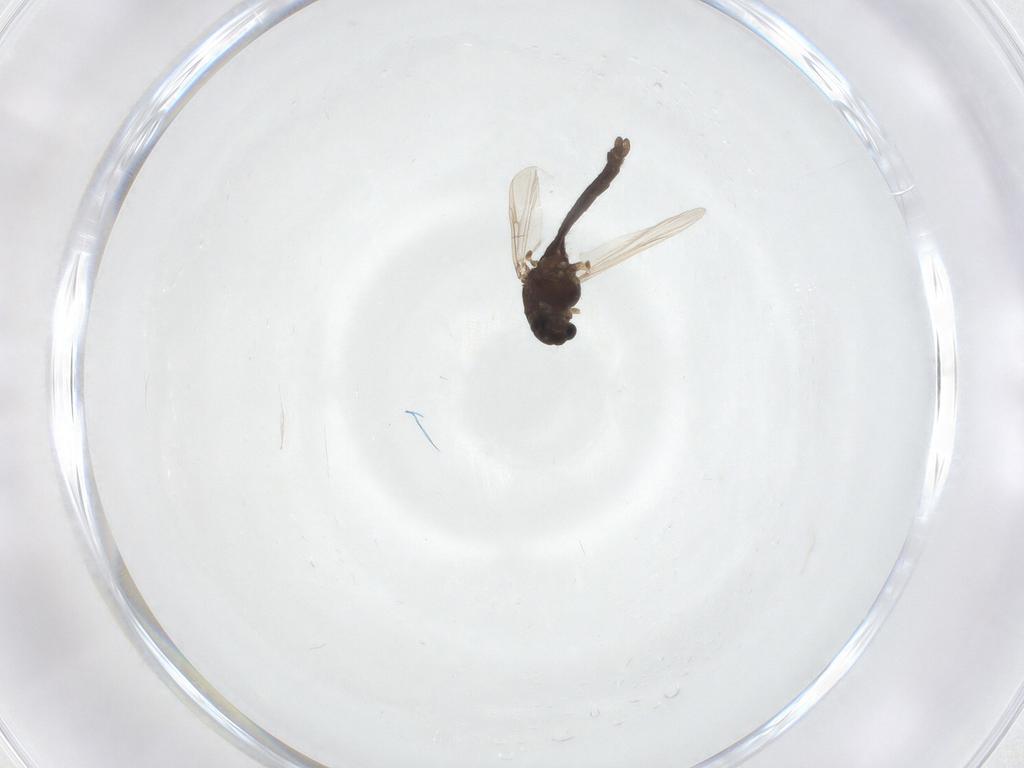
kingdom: Animalia
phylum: Arthropoda
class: Insecta
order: Diptera
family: Chironomidae
